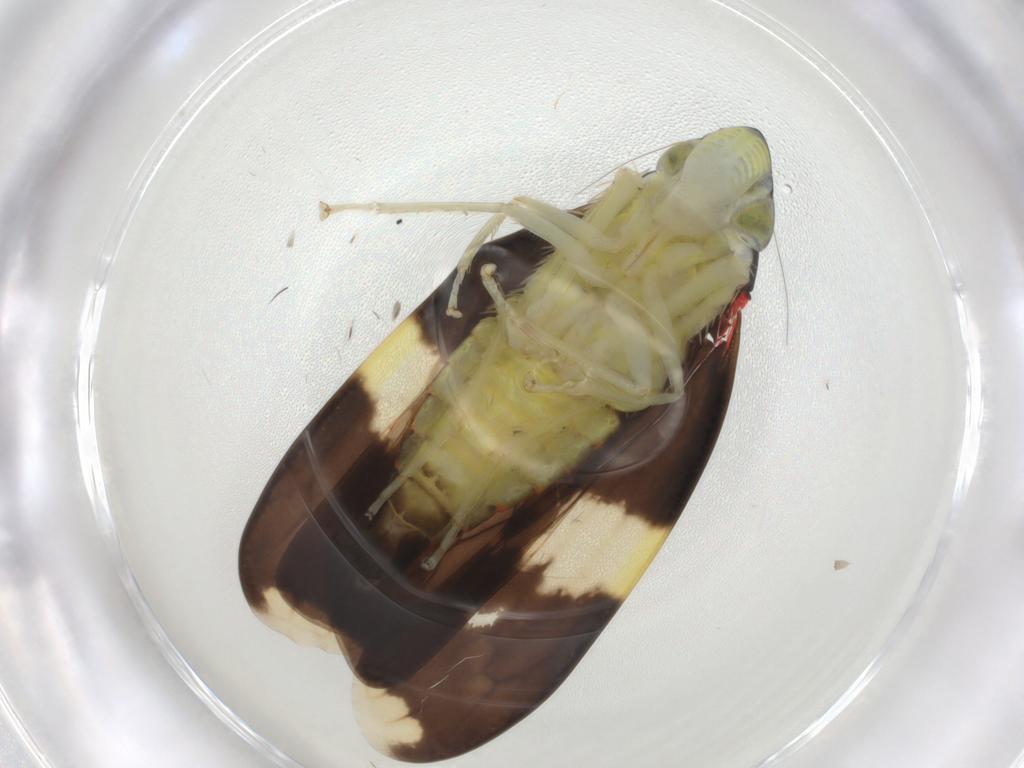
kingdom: Animalia
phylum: Arthropoda
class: Insecta
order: Hemiptera
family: Cicadellidae
